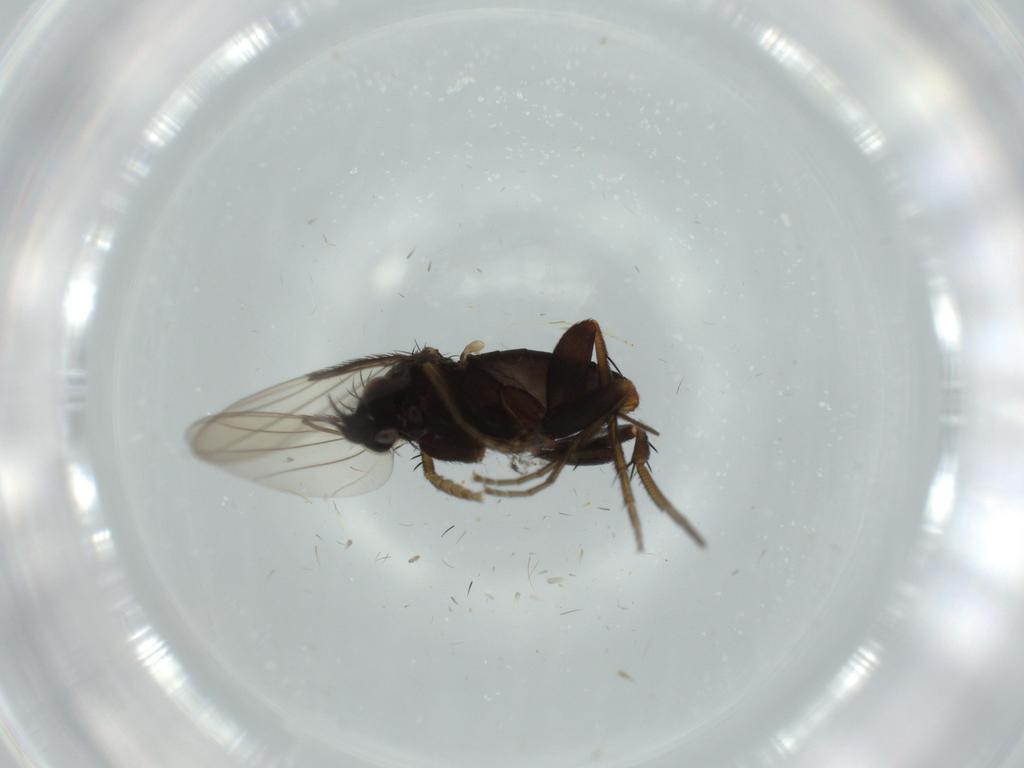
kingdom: Animalia
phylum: Arthropoda
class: Insecta
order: Diptera
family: Phoridae
